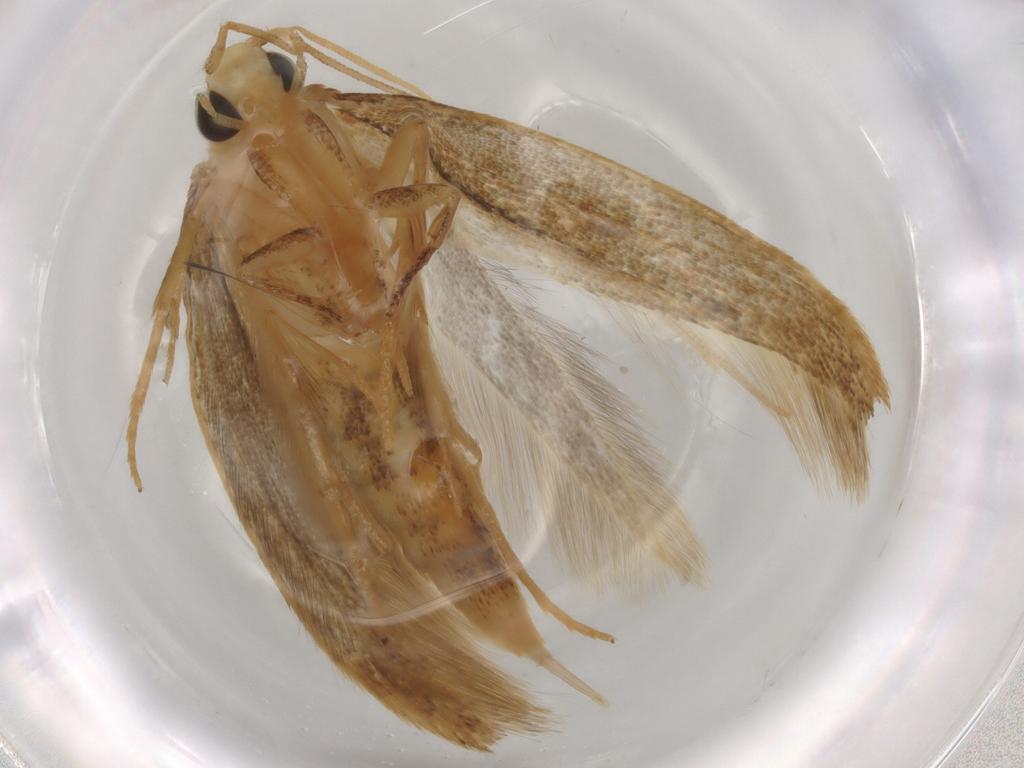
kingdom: Animalia
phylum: Arthropoda
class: Insecta
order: Lepidoptera
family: Tineidae
